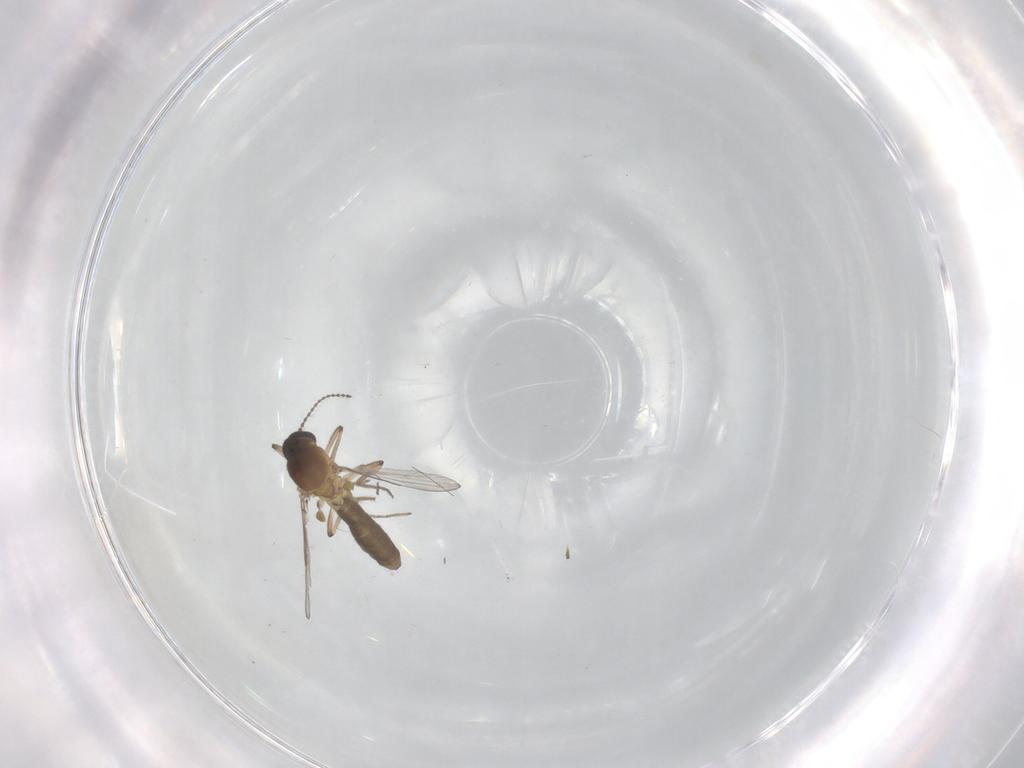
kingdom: Animalia
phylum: Arthropoda
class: Insecta
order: Diptera
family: Ceratopogonidae
